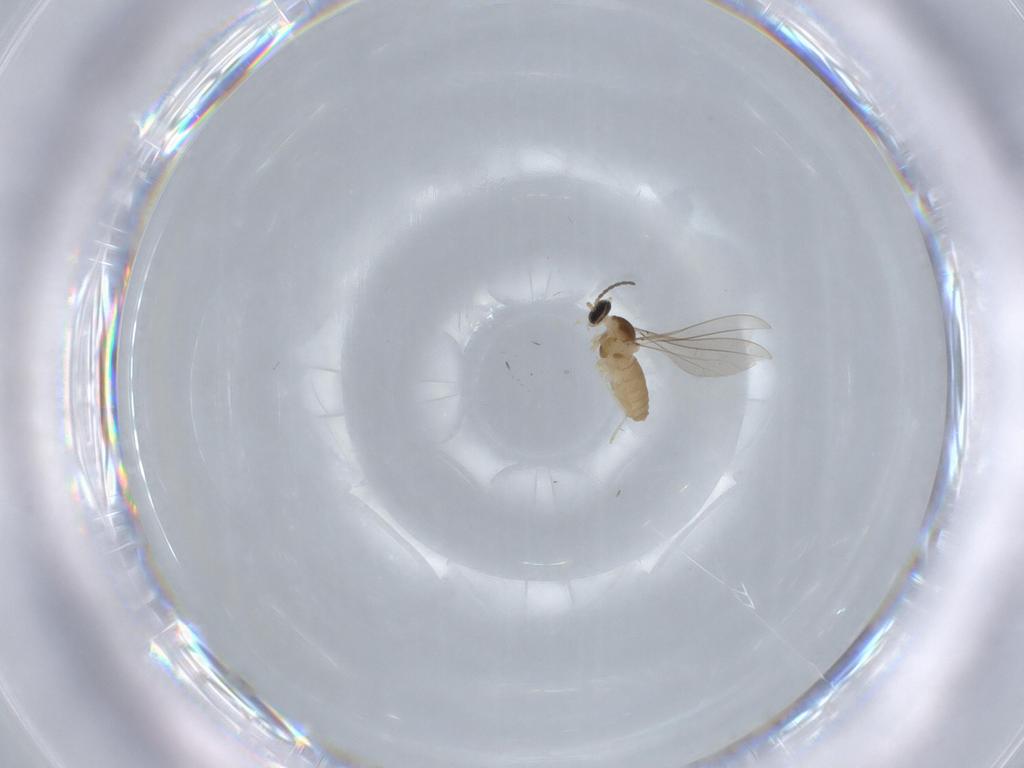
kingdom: Animalia
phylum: Arthropoda
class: Insecta
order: Diptera
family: Cecidomyiidae
